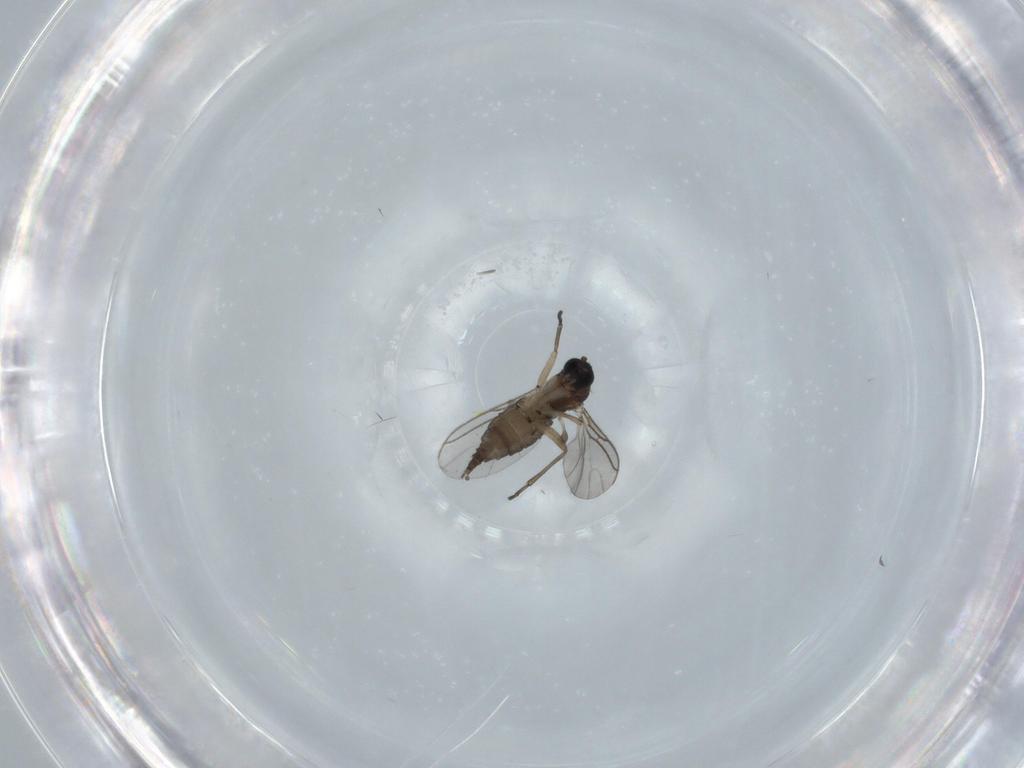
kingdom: Animalia
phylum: Arthropoda
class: Insecta
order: Diptera
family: Sciaridae
